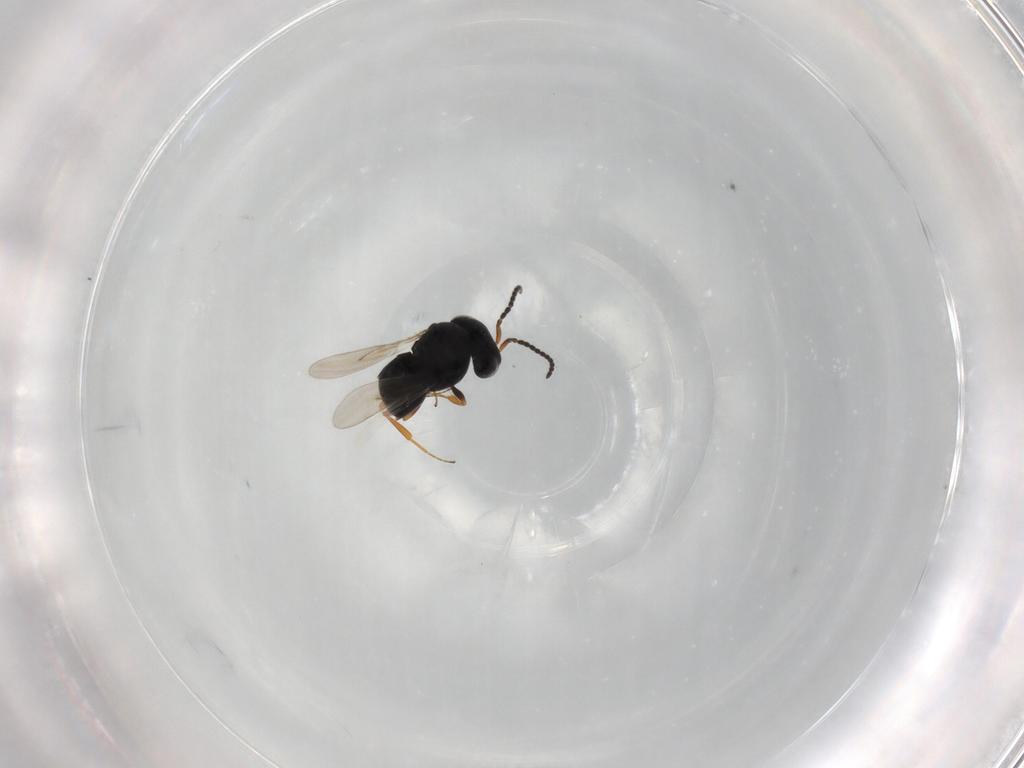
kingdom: Animalia
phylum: Arthropoda
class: Insecta
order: Hymenoptera
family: Scelionidae
